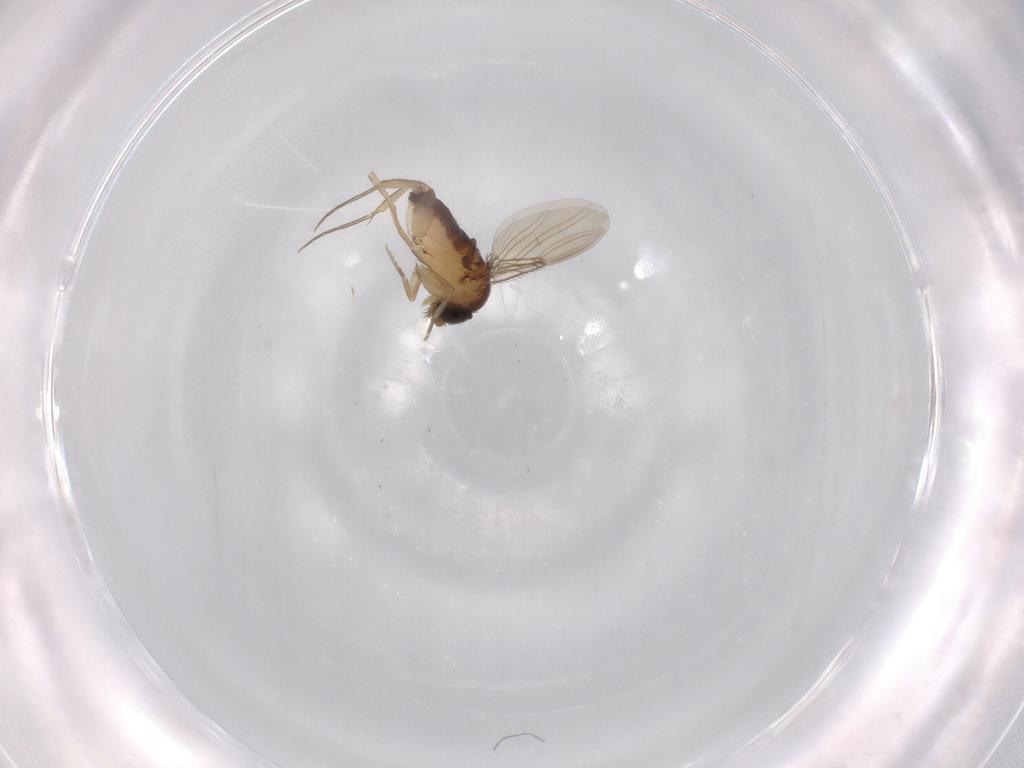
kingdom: Animalia
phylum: Arthropoda
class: Insecta
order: Diptera
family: Phoridae
